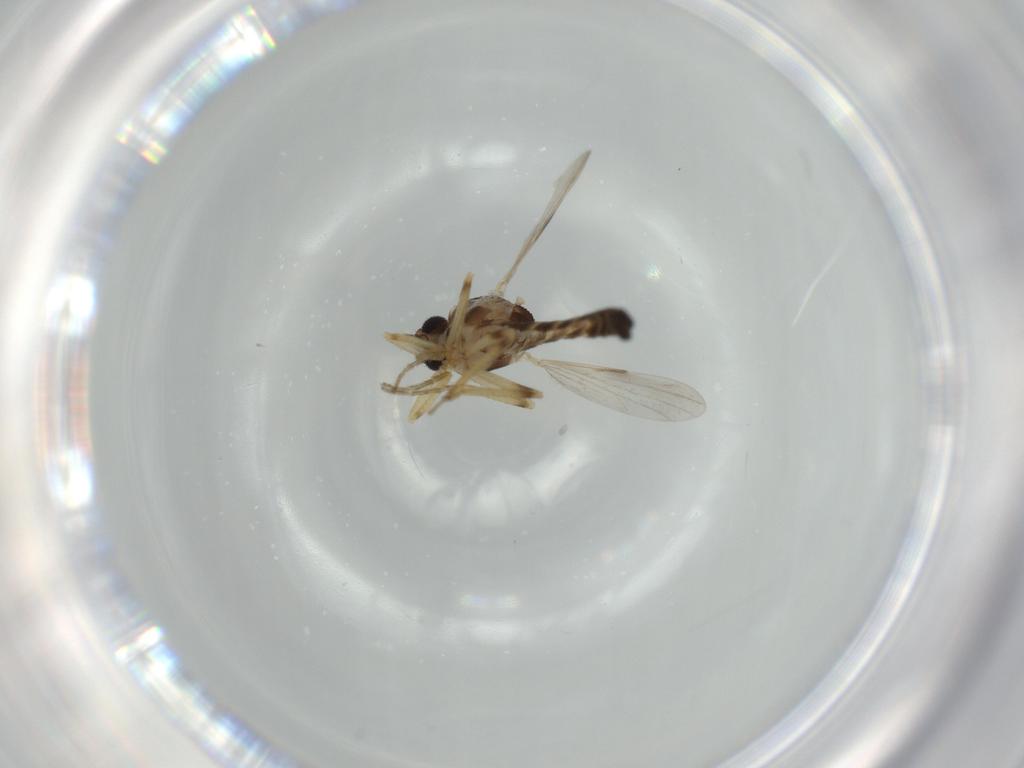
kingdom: Animalia
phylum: Arthropoda
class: Insecta
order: Diptera
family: Ceratopogonidae
